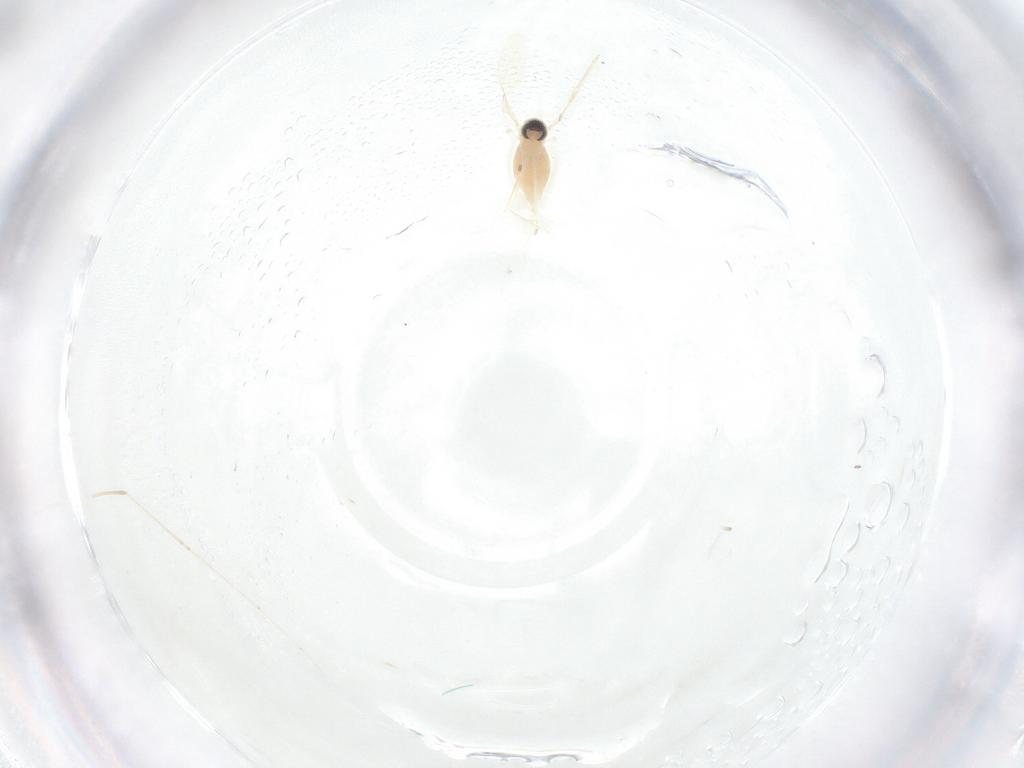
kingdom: Animalia
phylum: Arthropoda
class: Insecta
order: Diptera
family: Cecidomyiidae
